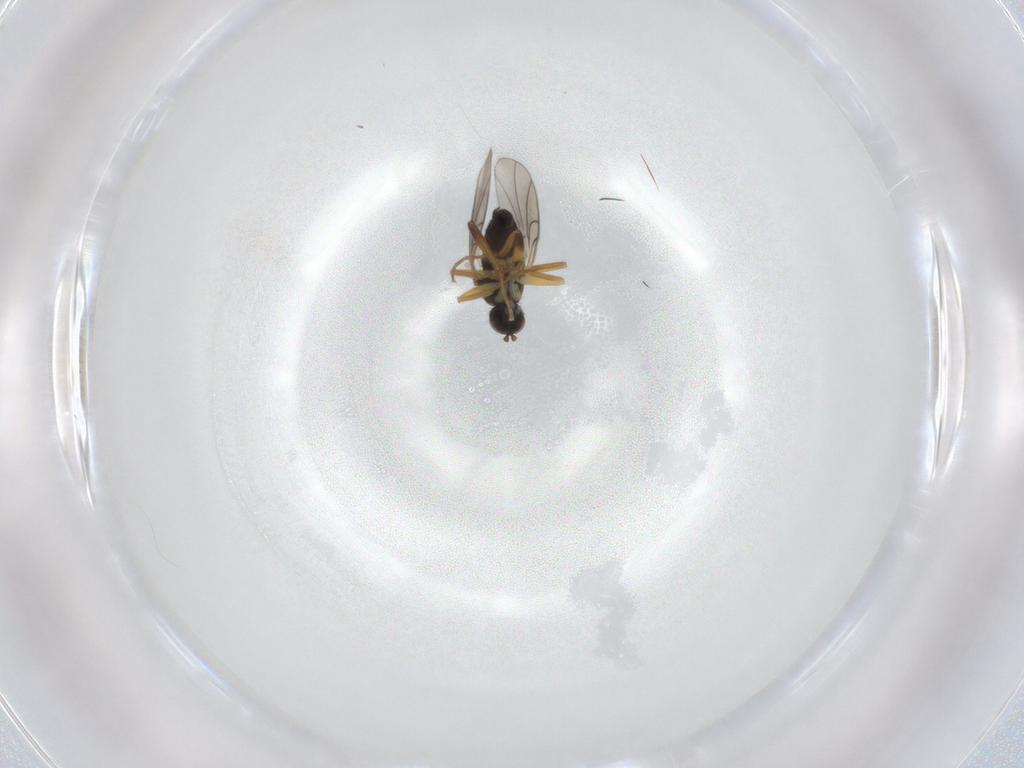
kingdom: Animalia
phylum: Arthropoda
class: Insecta
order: Diptera
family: Hybotidae
